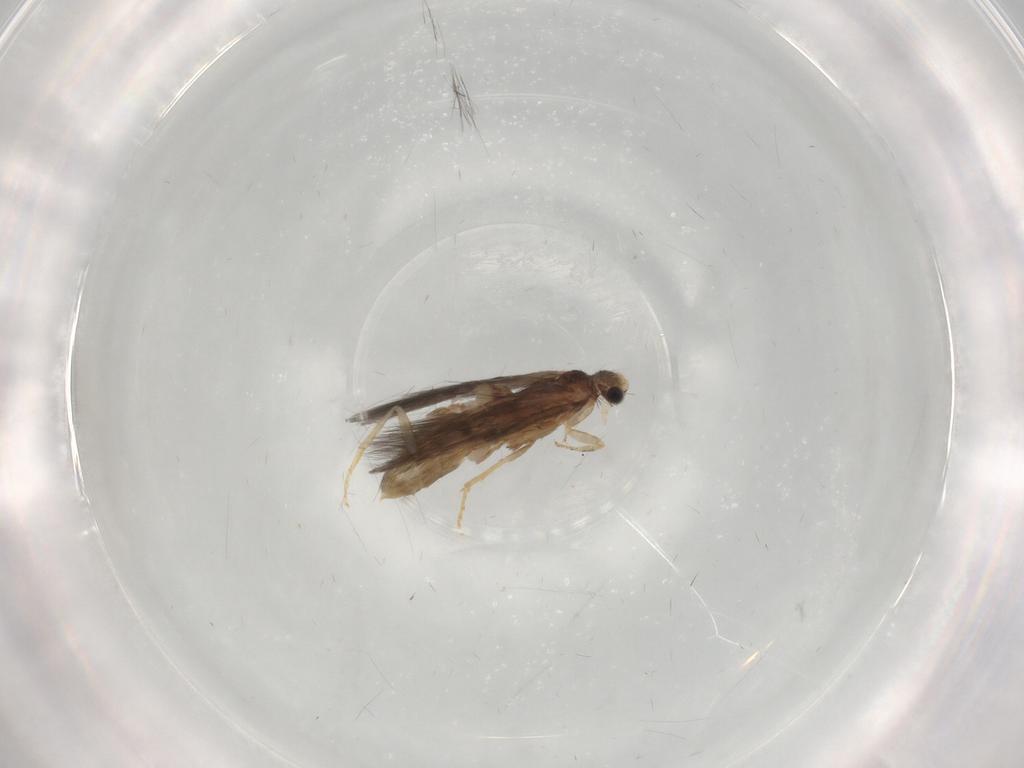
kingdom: Animalia
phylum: Arthropoda
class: Insecta
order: Trichoptera
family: Hydroptilidae
